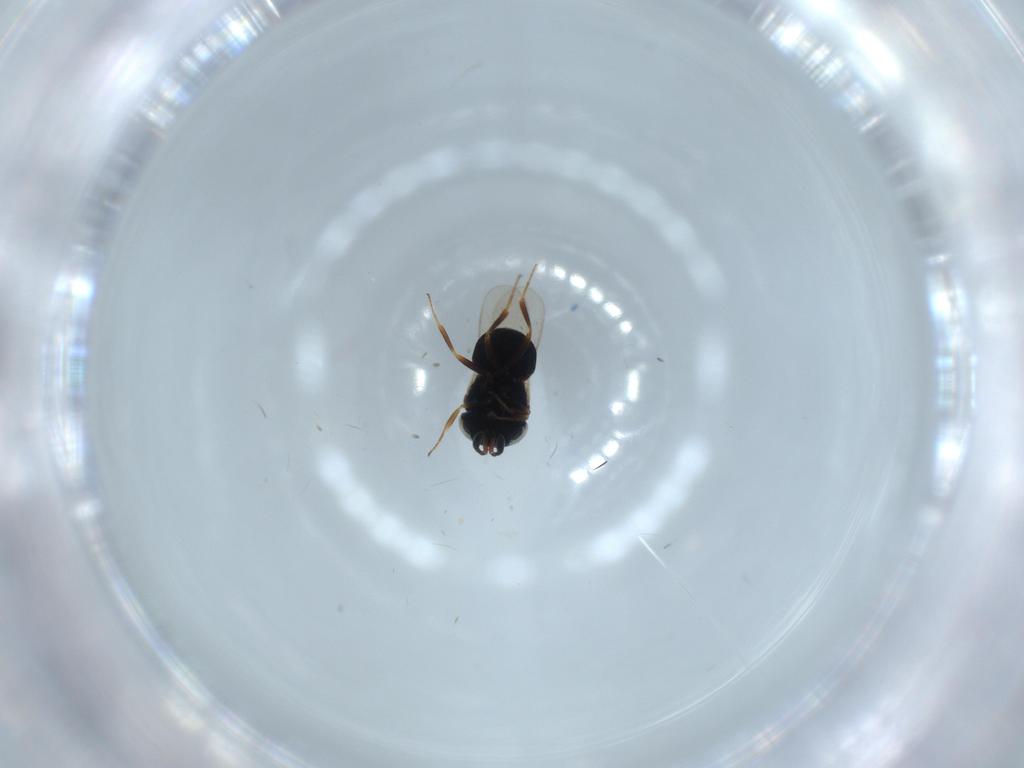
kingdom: Animalia
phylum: Arthropoda
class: Insecta
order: Hymenoptera
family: Scelionidae
